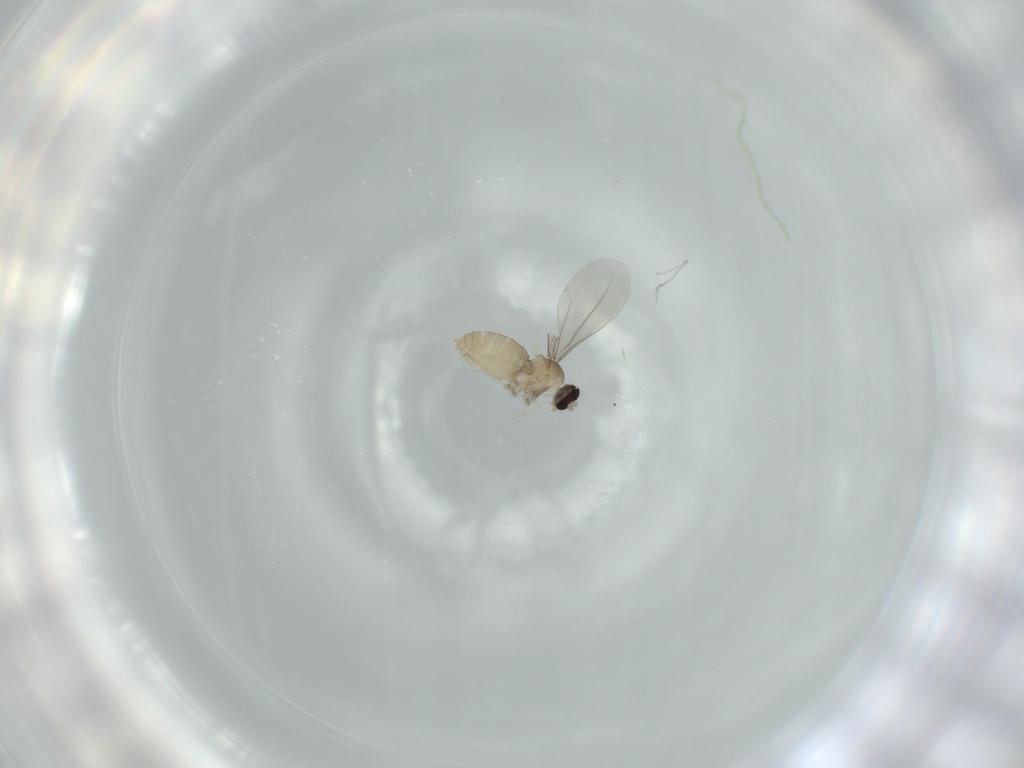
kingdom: Animalia
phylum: Arthropoda
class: Insecta
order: Diptera
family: Cecidomyiidae
